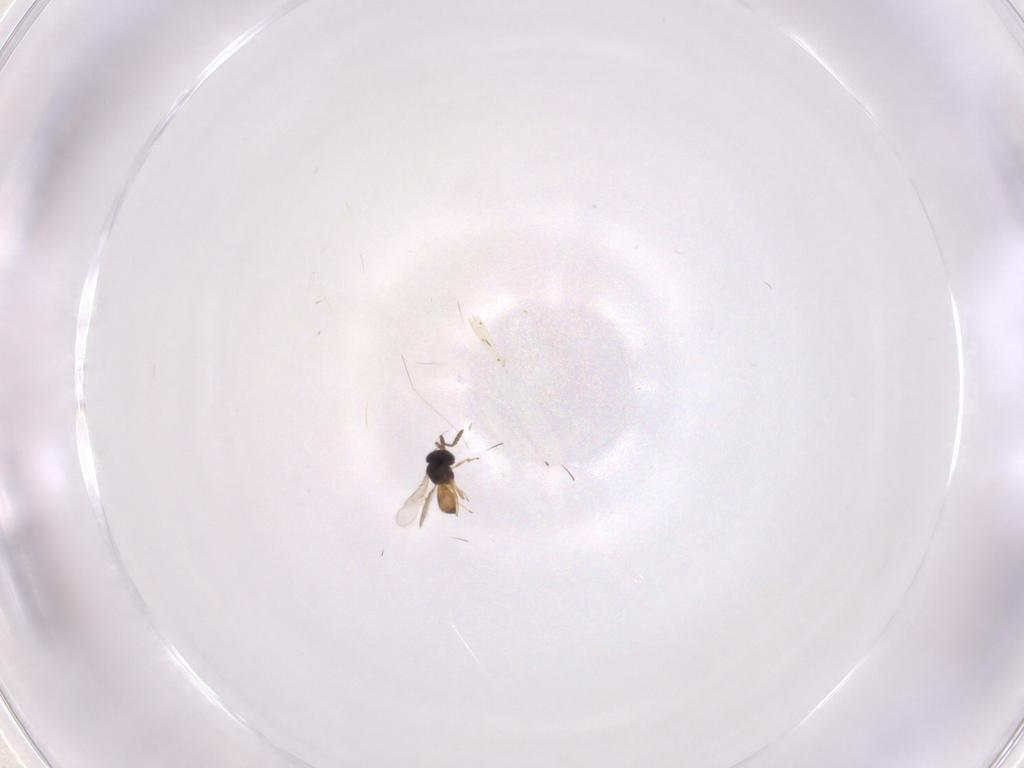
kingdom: Animalia
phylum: Arthropoda
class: Insecta
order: Hymenoptera
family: Scelionidae
